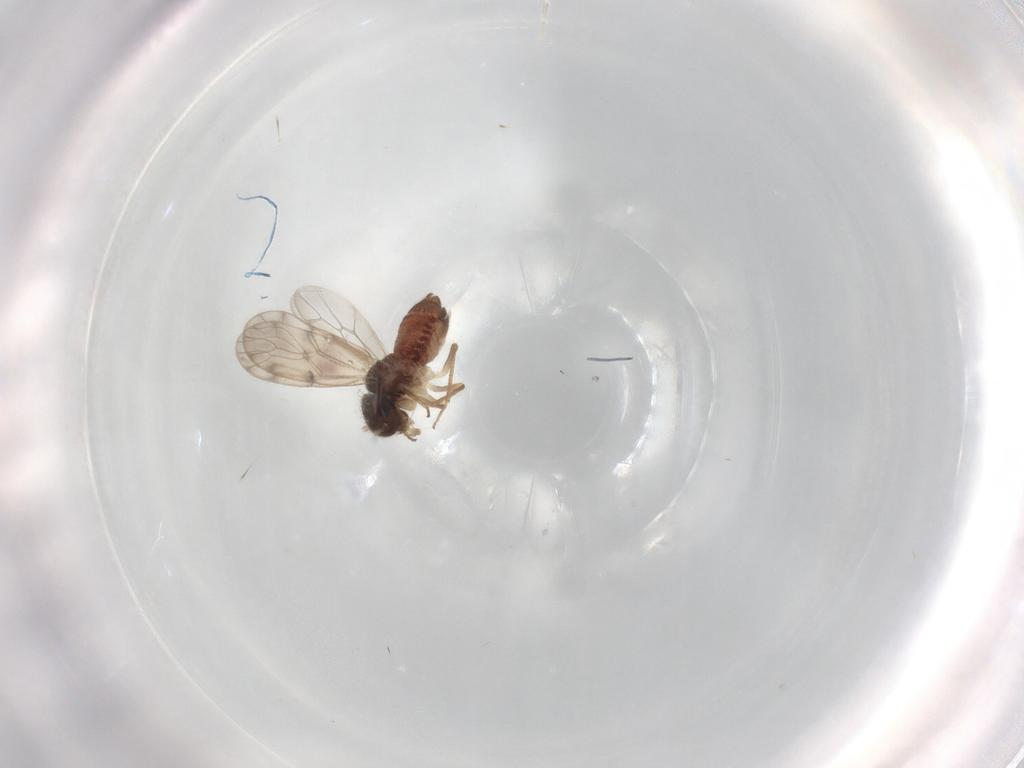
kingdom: Animalia
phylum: Arthropoda
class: Insecta
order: Psocodea
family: Peripsocidae
